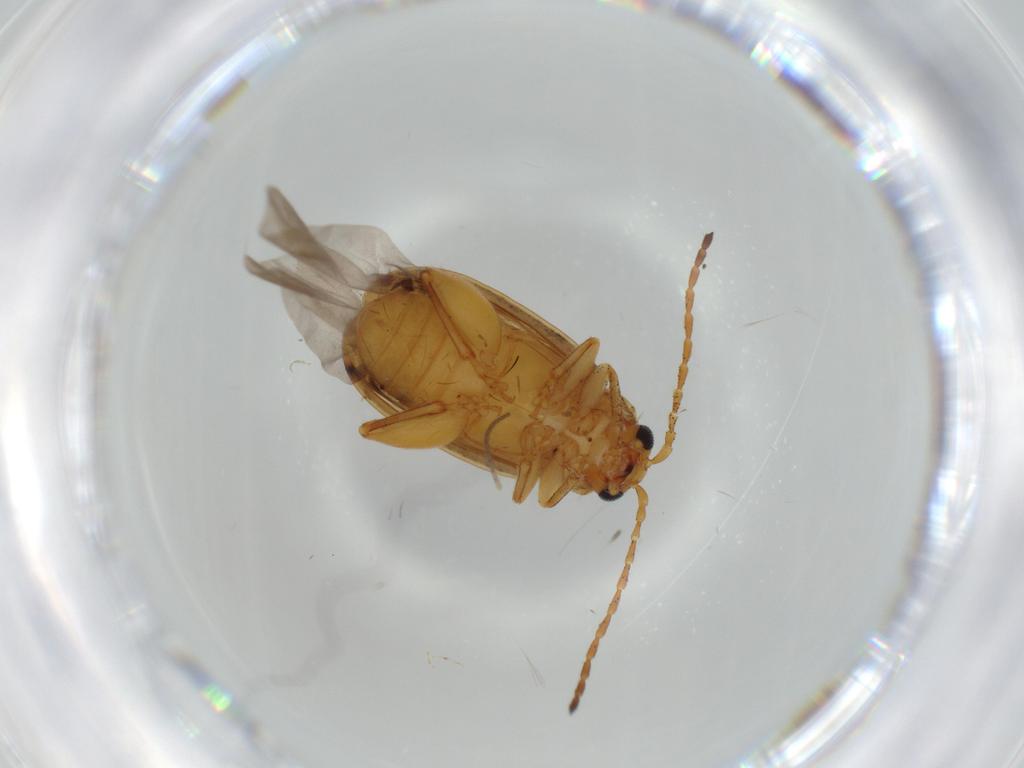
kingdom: Animalia
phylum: Arthropoda
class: Insecta
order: Coleoptera
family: Chrysomelidae
